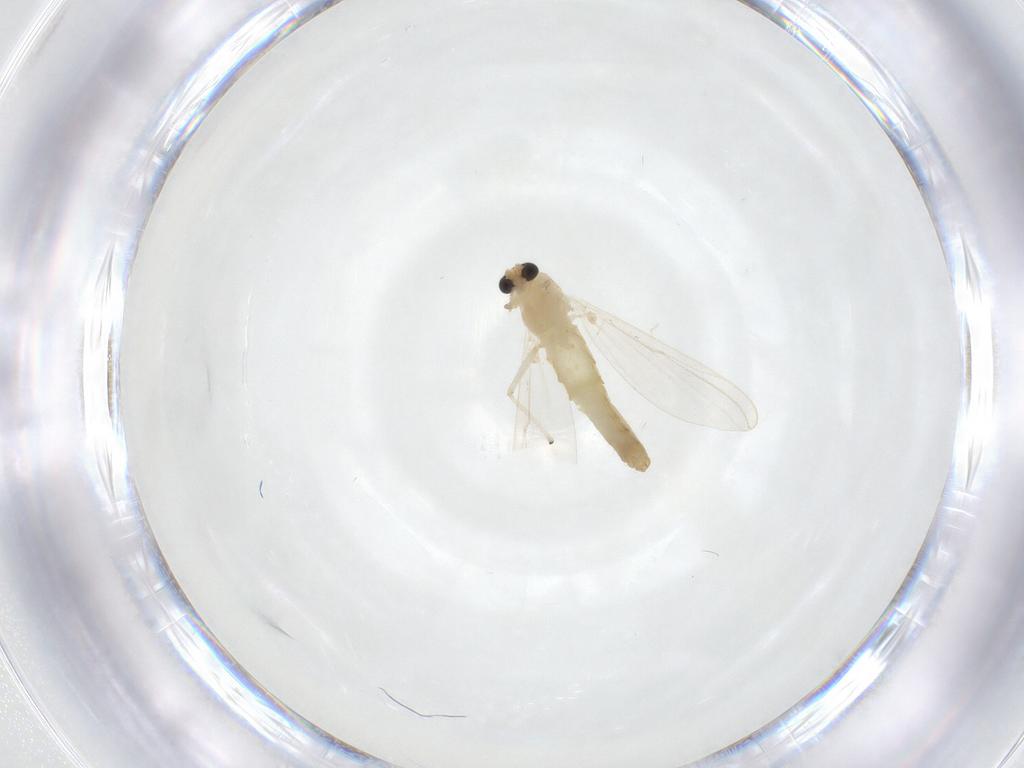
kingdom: Animalia
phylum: Arthropoda
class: Insecta
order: Diptera
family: Chironomidae
